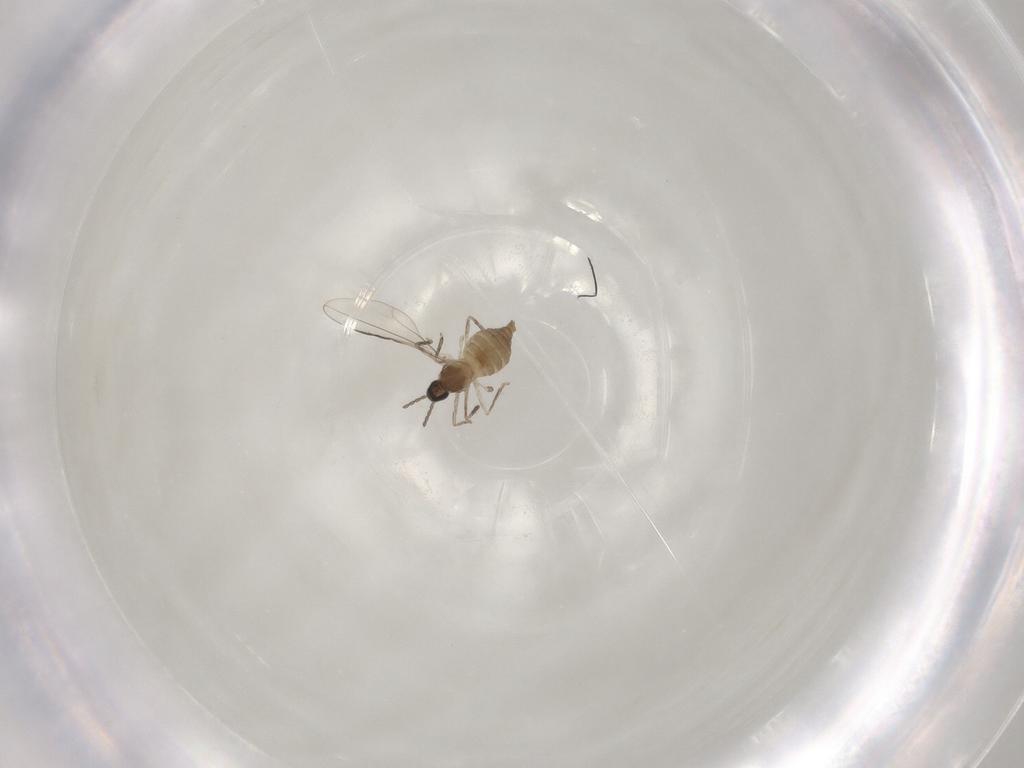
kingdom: Animalia
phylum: Arthropoda
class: Insecta
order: Diptera
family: Cecidomyiidae
